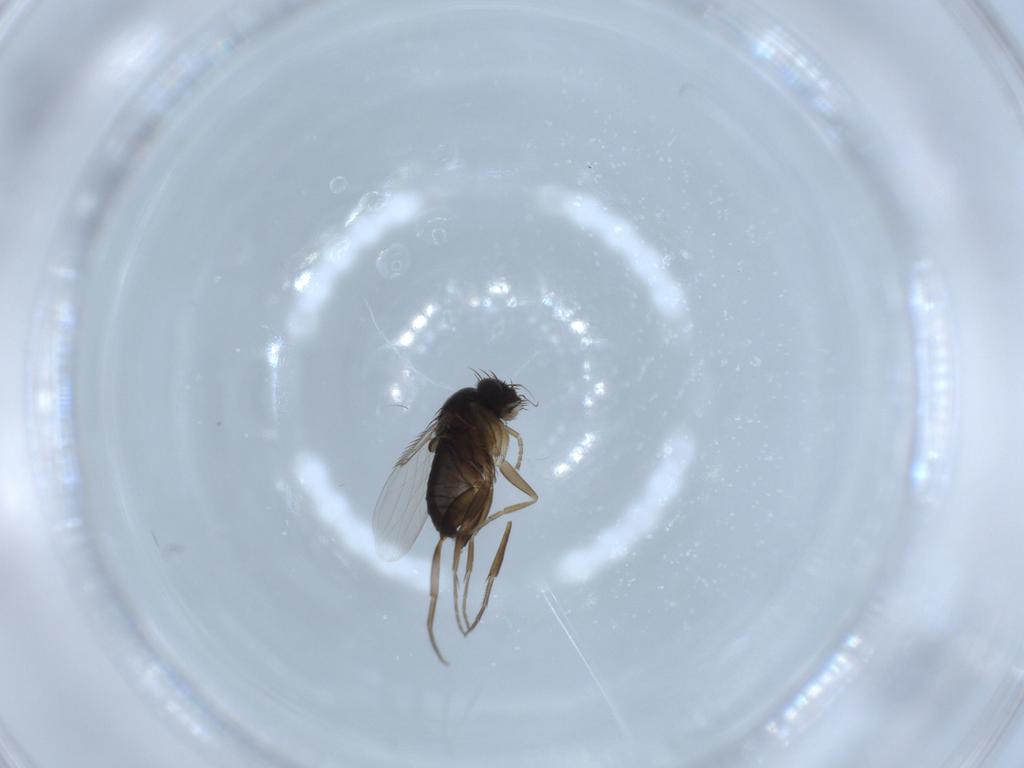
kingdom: Animalia
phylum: Arthropoda
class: Insecta
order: Diptera
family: Phoridae
